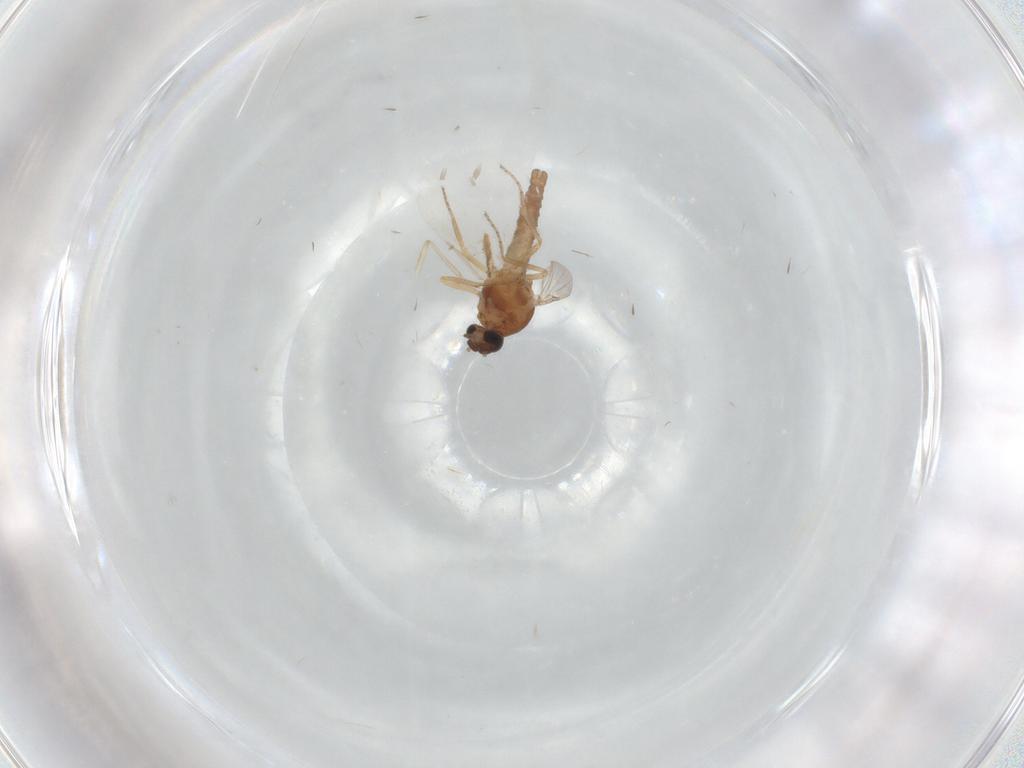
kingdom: Animalia
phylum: Arthropoda
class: Insecta
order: Diptera
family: Ceratopogonidae
